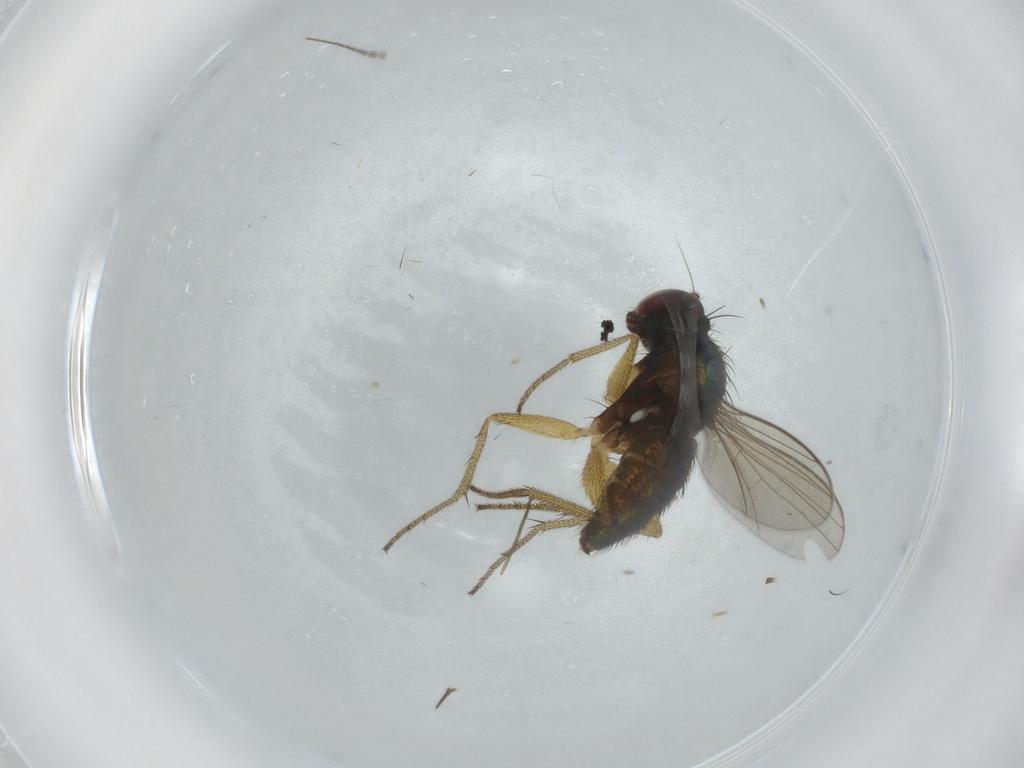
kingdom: Animalia
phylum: Arthropoda
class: Insecta
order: Diptera
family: Dolichopodidae
